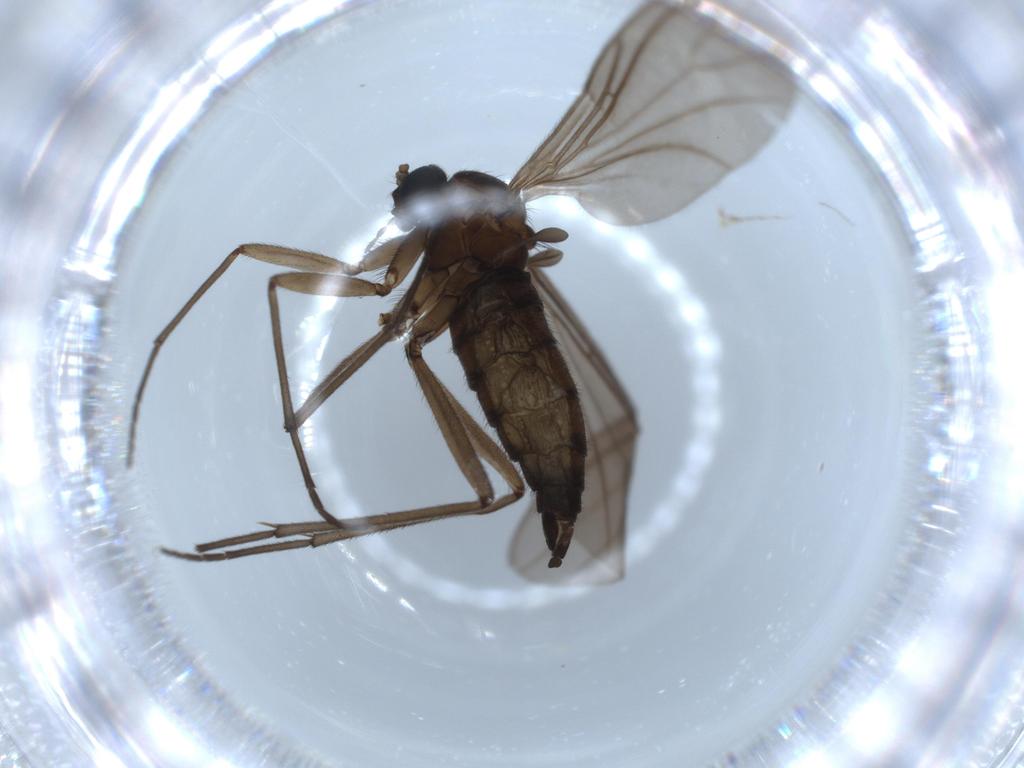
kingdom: Animalia
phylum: Arthropoda
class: Insecta
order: Diptera
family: Sciaridae
